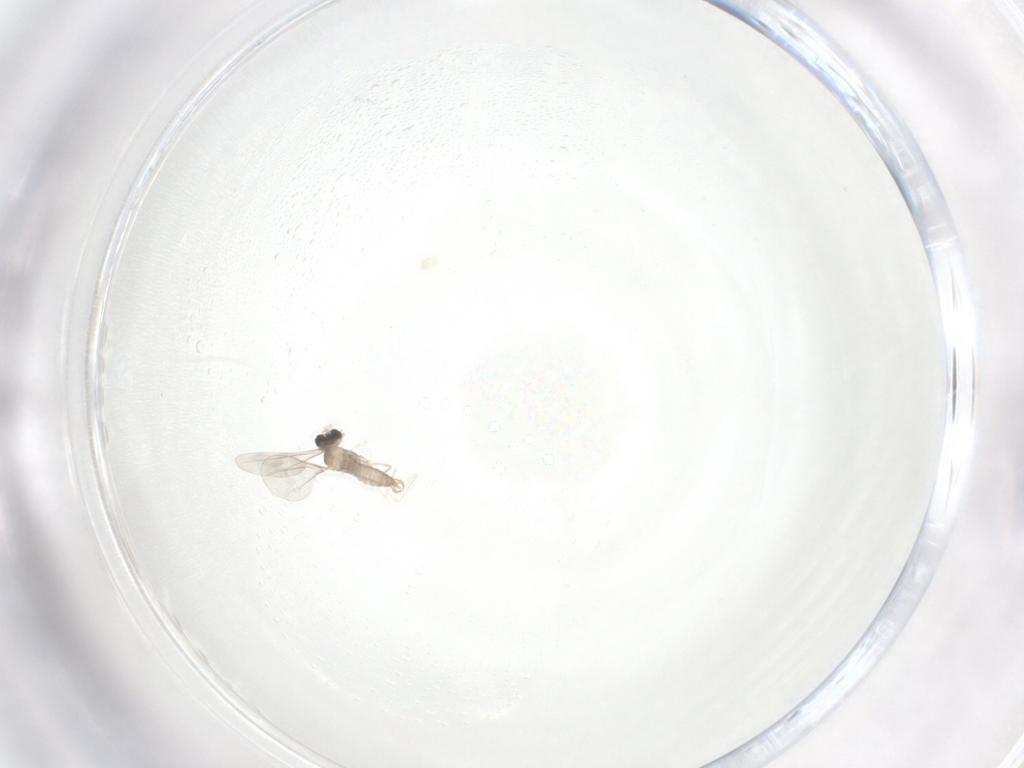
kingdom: Animalia
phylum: Arthropoda
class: Insecta
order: Diptera
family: Cecidomyiidae
